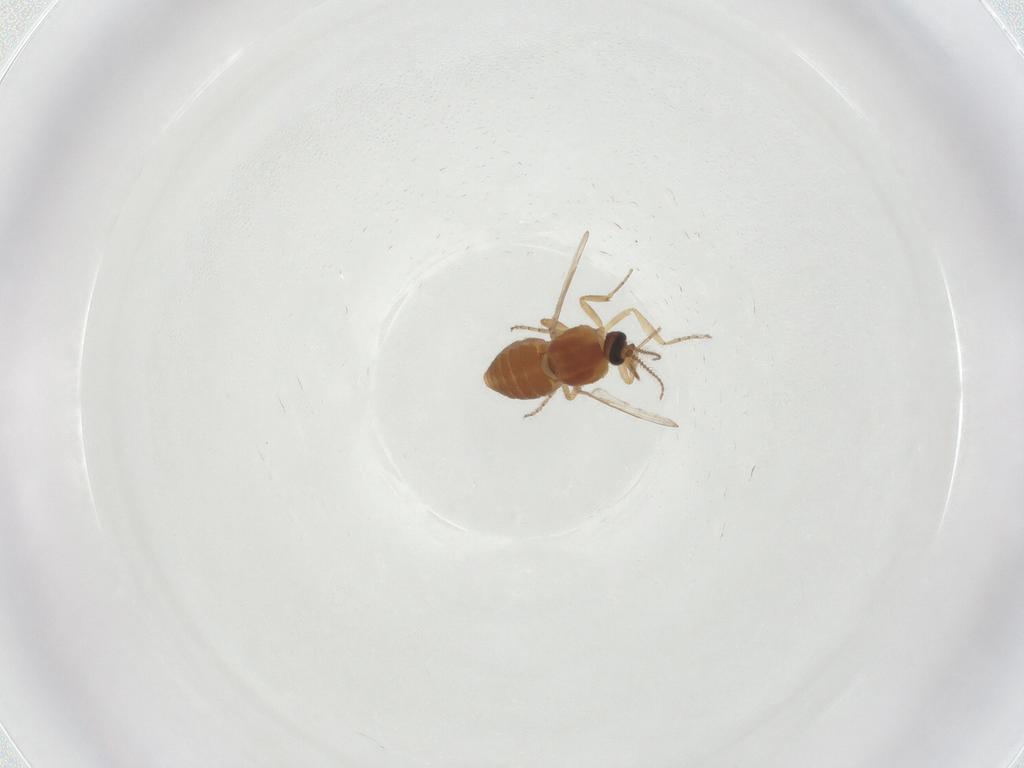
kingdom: Animalia
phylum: Arthropoda
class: Insecta
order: Diptera
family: Ceratopogonidae
